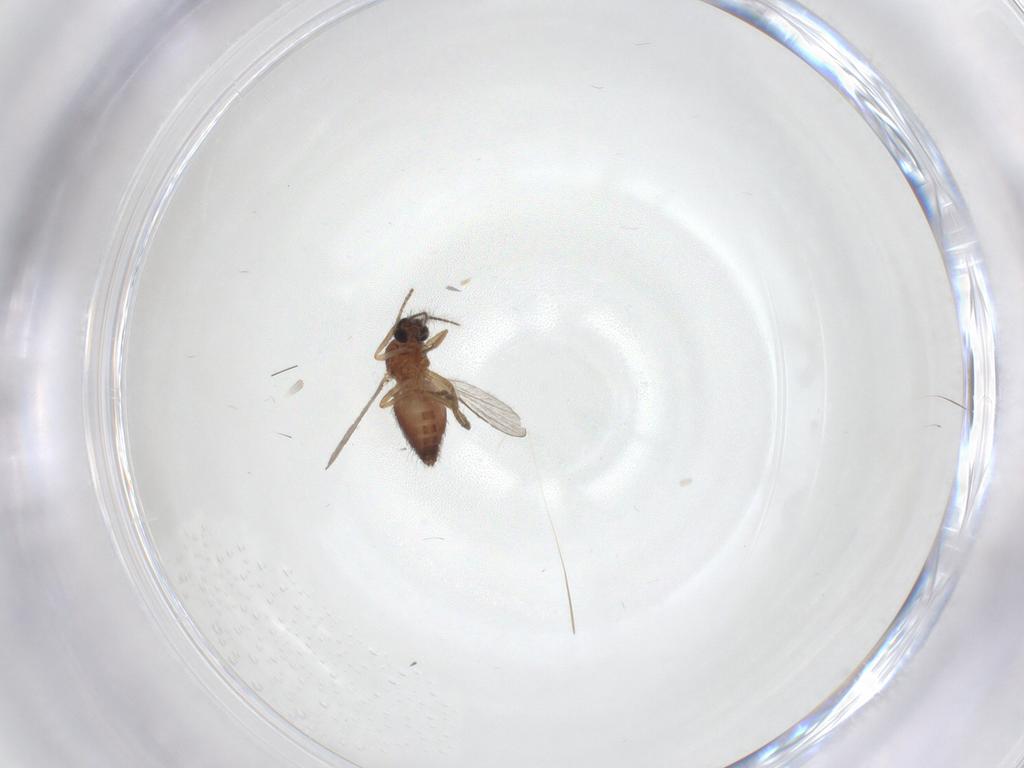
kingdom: Animalia
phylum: Arthropoda
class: Insecta
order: Diptera
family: Ceratopogonidae
